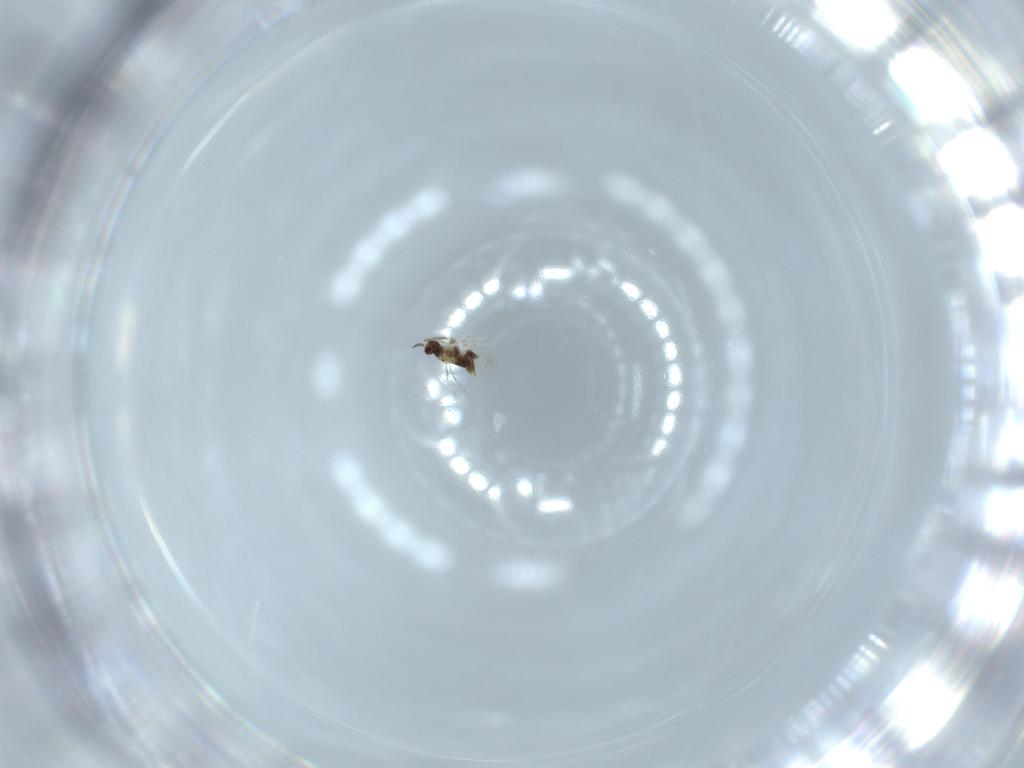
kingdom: Animalia
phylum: Arthropoda
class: Insecta
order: Hymenoptera
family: Aphelinidae
